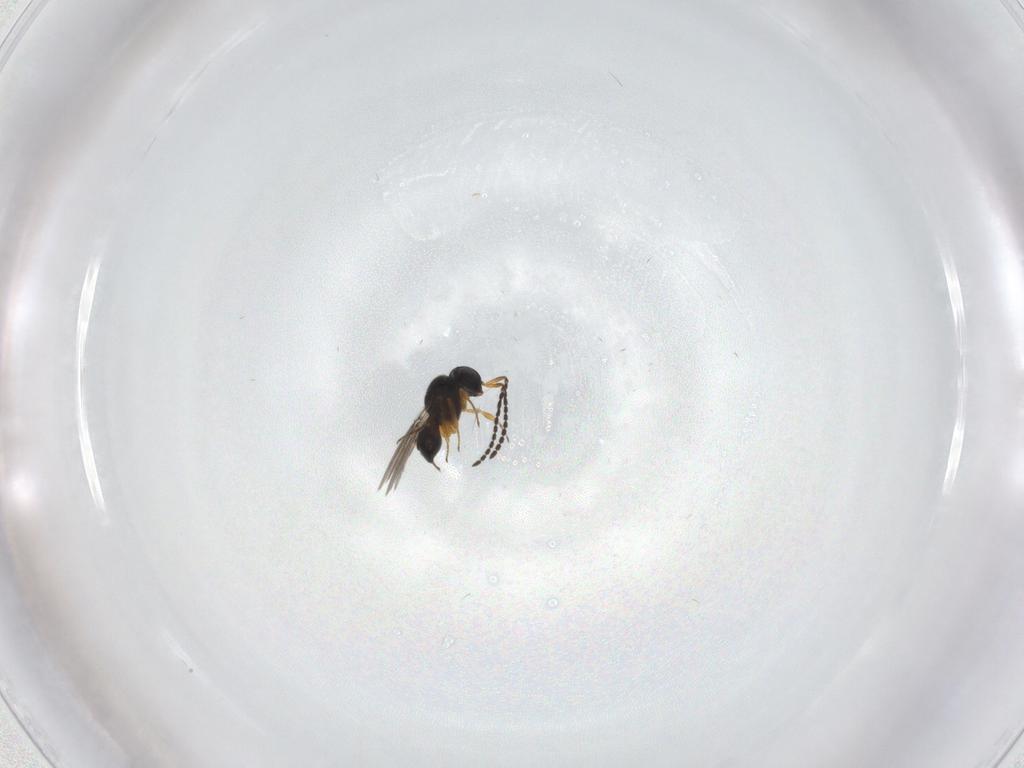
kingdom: Animalia
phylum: Arthropoda
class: Insecta
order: Hymenoptera
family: Scelionidae
